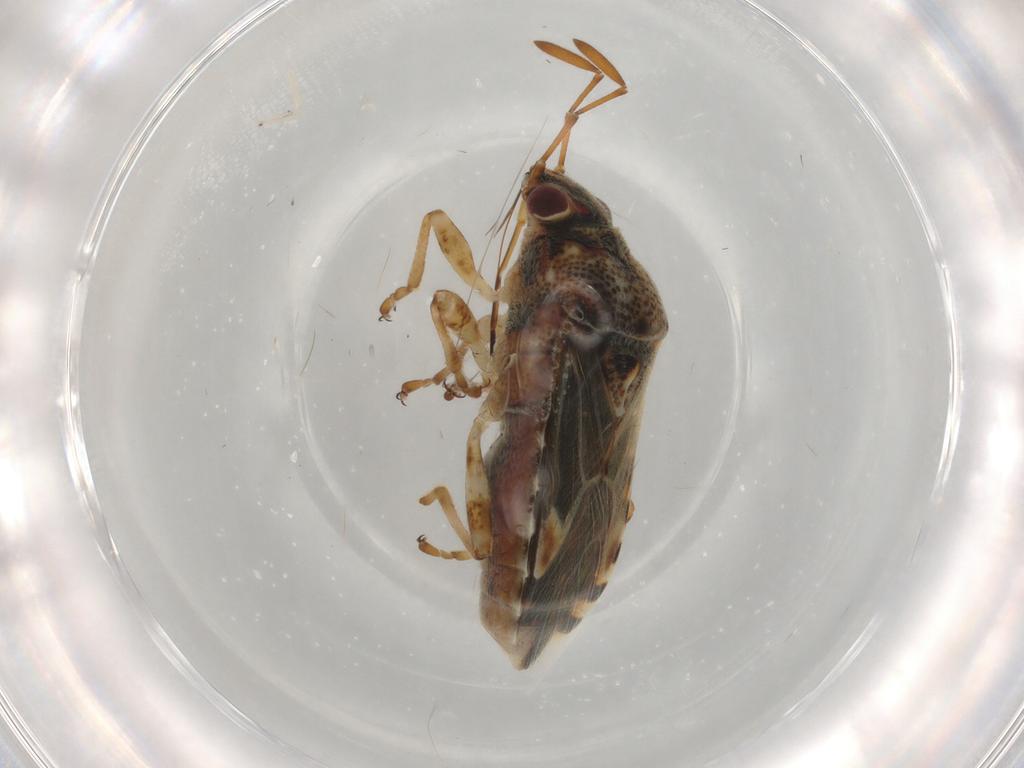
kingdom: Animalia
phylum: Arthropoda
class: Insecta
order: Hemiptera
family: Lygaeidae
